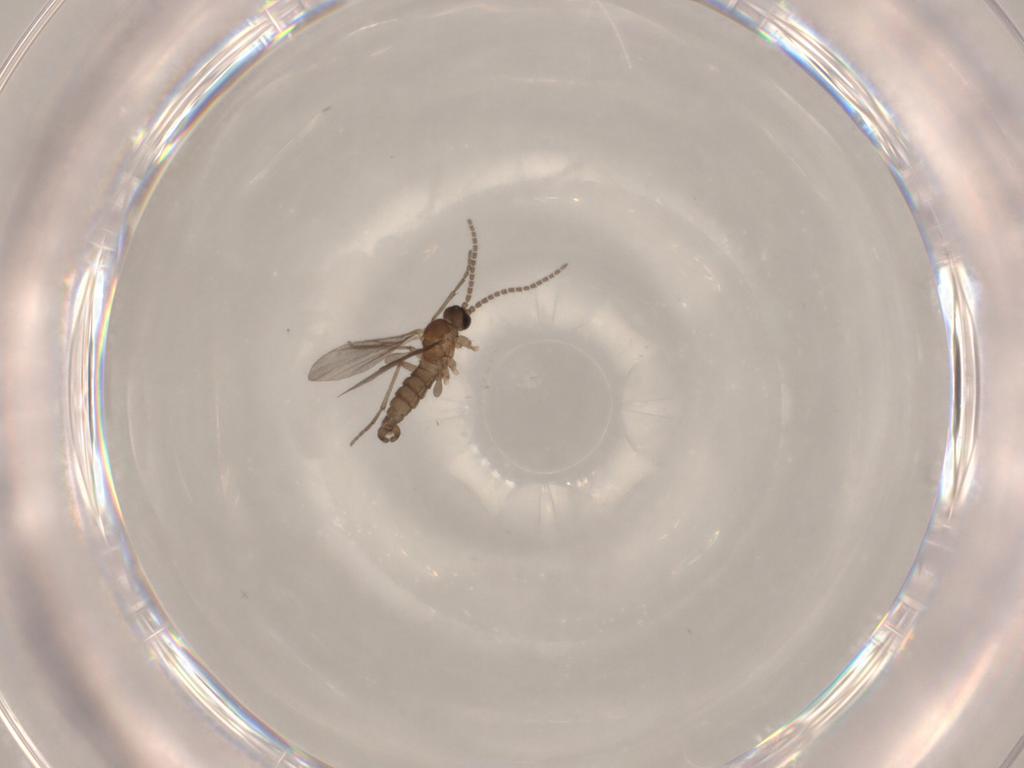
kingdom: Animalia
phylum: Arthropoda
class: Insecta
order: Diptera
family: Sciaridae
